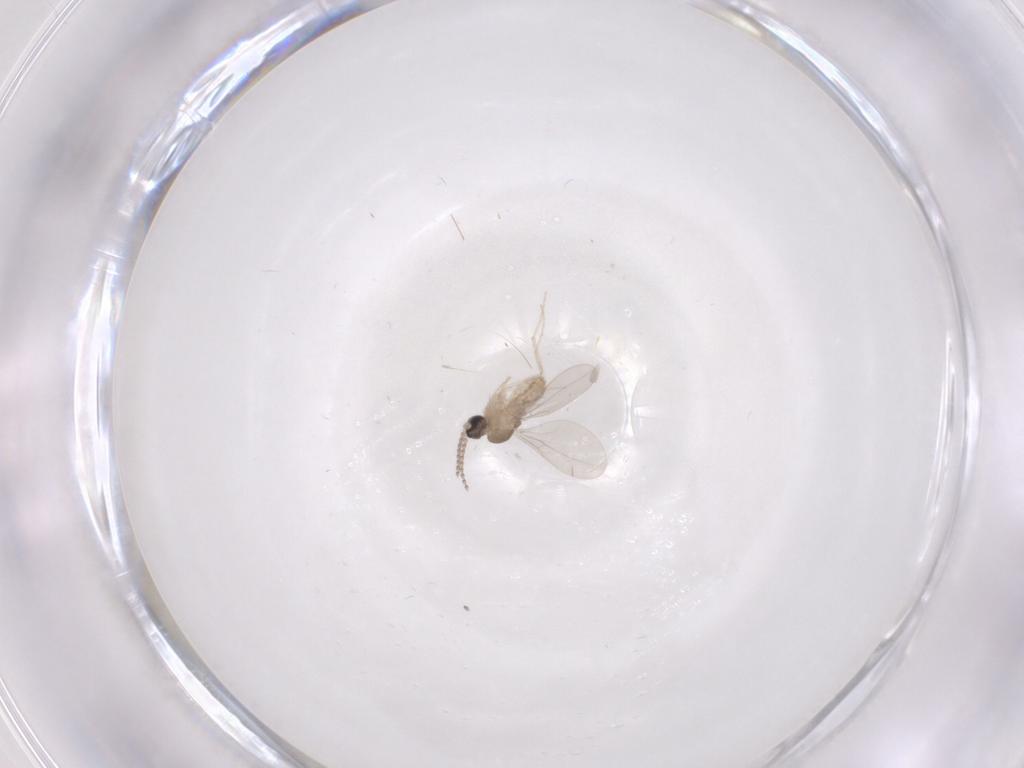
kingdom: Animalia
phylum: Arthropoda
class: Insecta
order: Diptera
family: Cecidomyiidae
